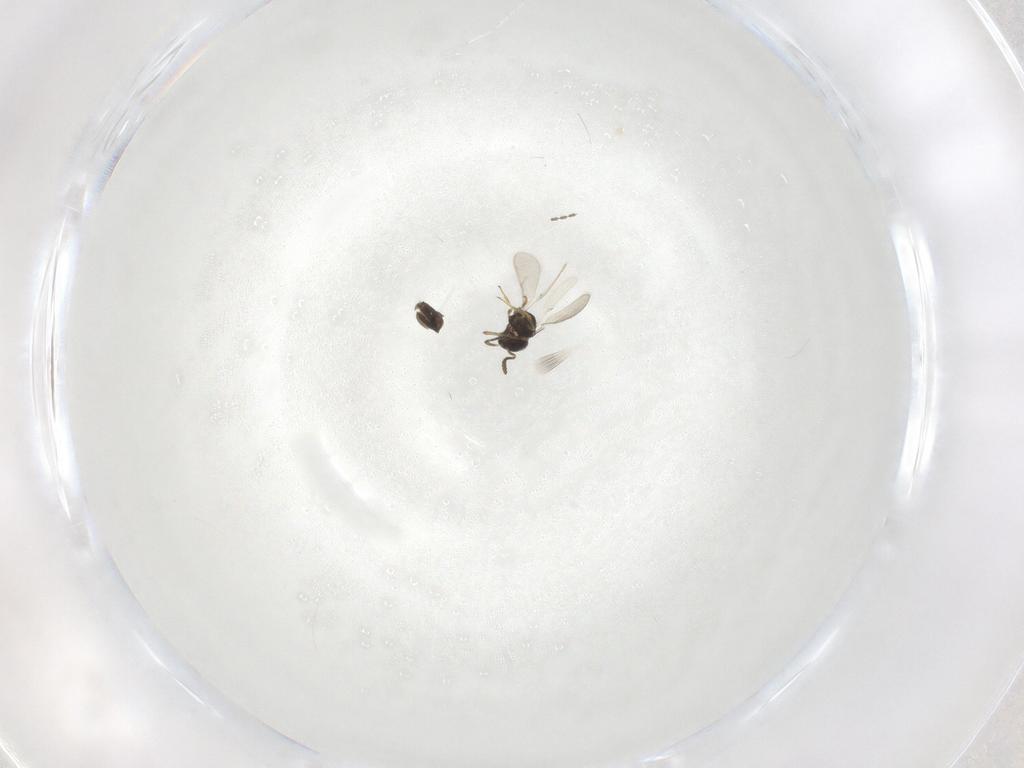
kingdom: Animalia
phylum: Arthropoda
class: Insecta
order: Hymenoptera
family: Scelionidae
